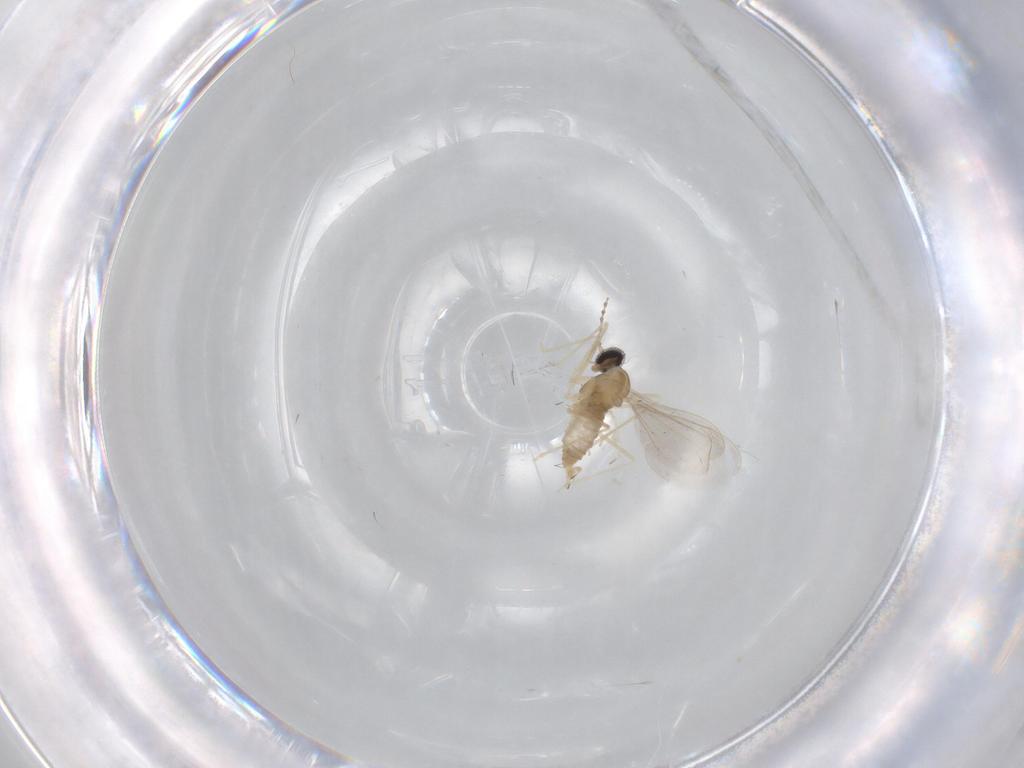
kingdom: Animalia
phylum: Arthropoda
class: Insecta
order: Diptera
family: Cecidomyiidae
